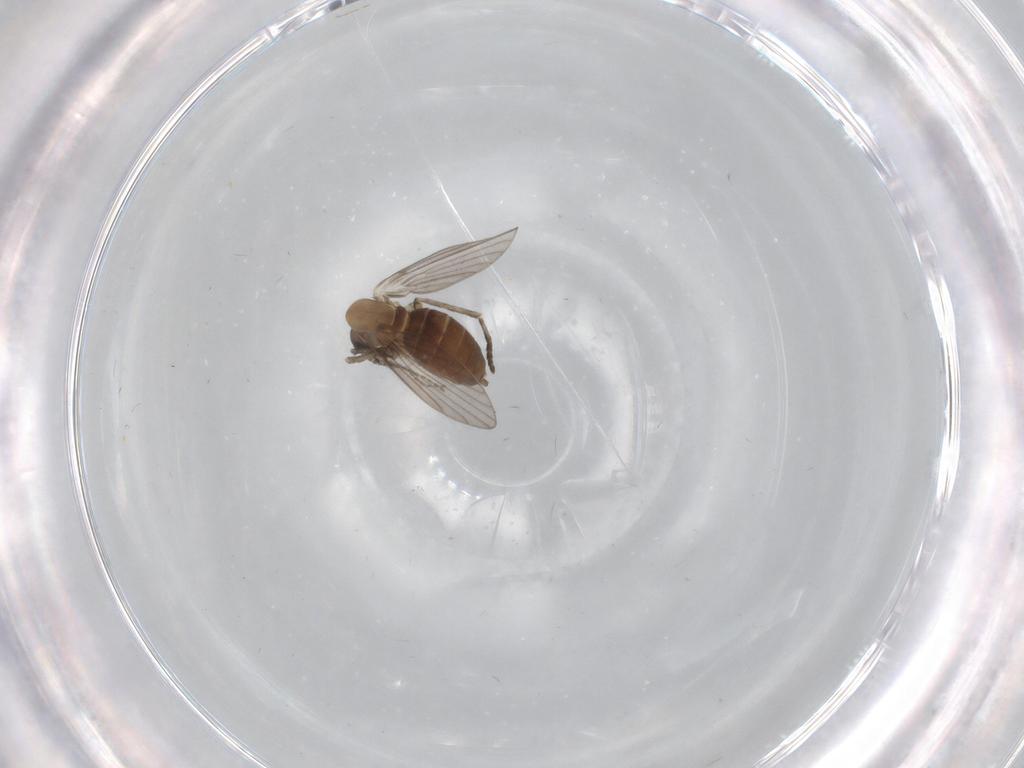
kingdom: Animalia
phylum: Arthropoda
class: Insecta
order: Diptera
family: Cecidomyiidae
